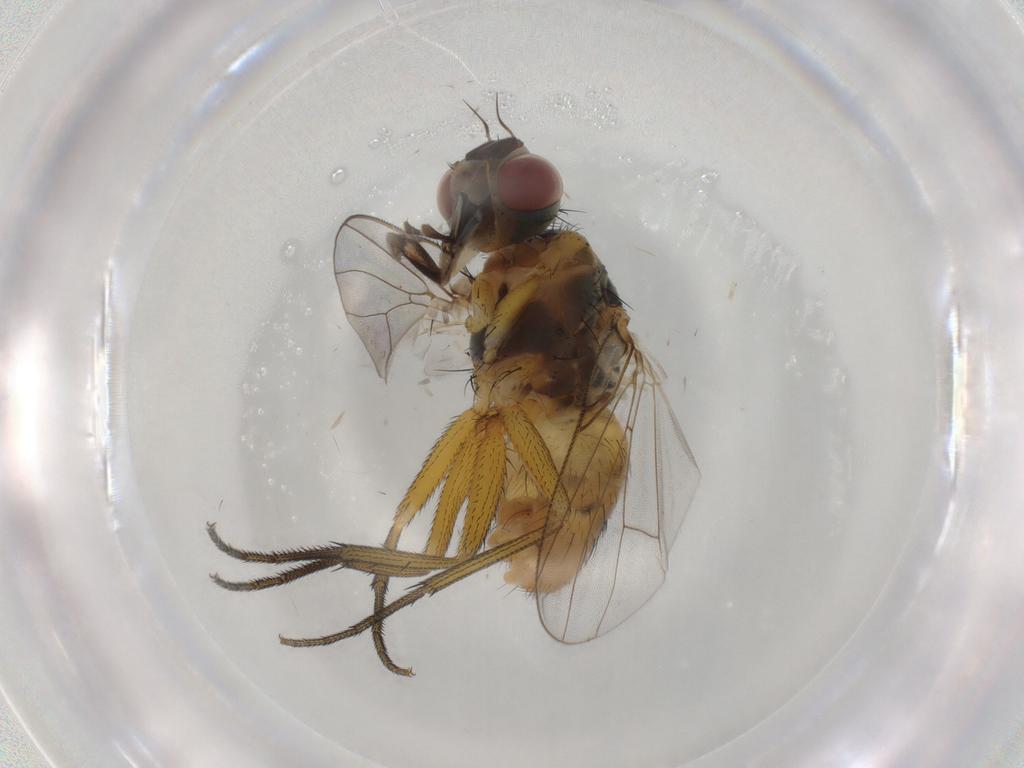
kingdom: Animalia
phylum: Arthropoda
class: Insecta
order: Diptera
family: Muscidae
